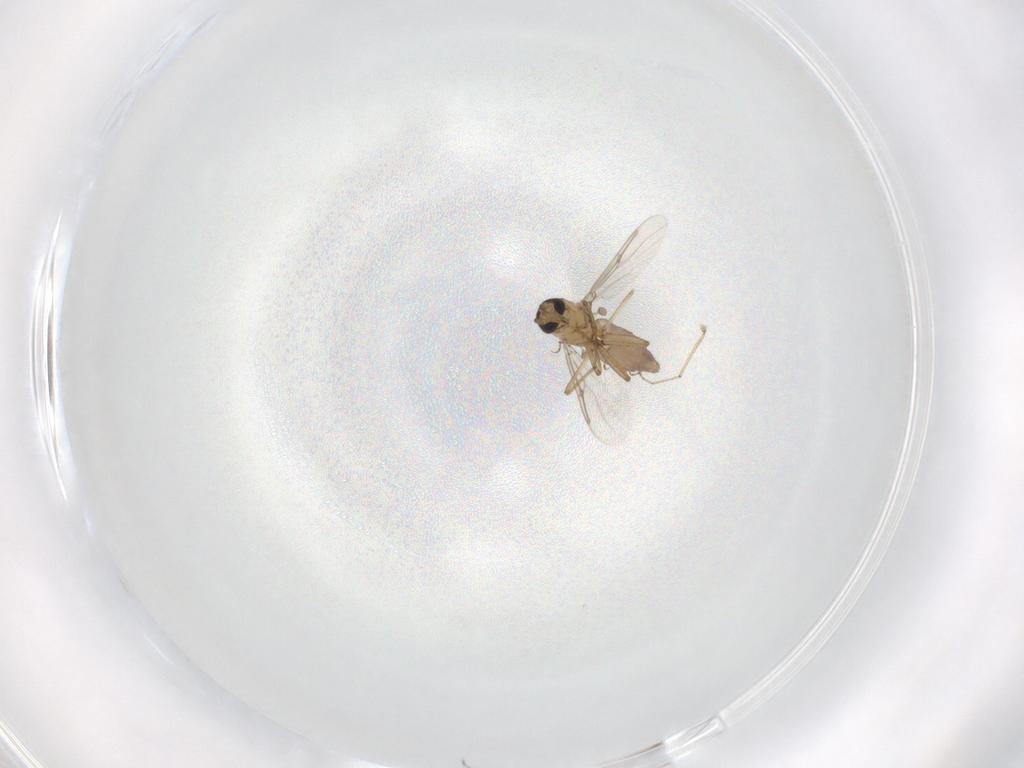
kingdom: Animalia
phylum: Arthropoda
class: Insecta
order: Diptera
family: Ceratopogonidae
